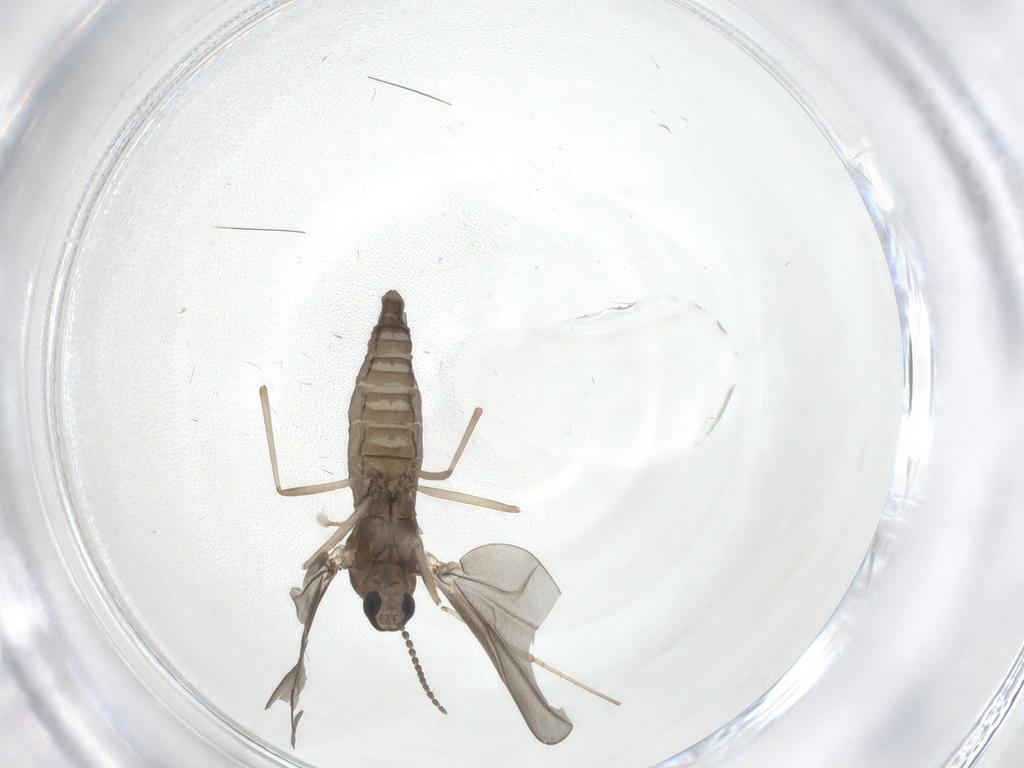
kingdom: Animalia
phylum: Arthropoda
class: Insecta
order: Diptera
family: Cecidomyiidae
